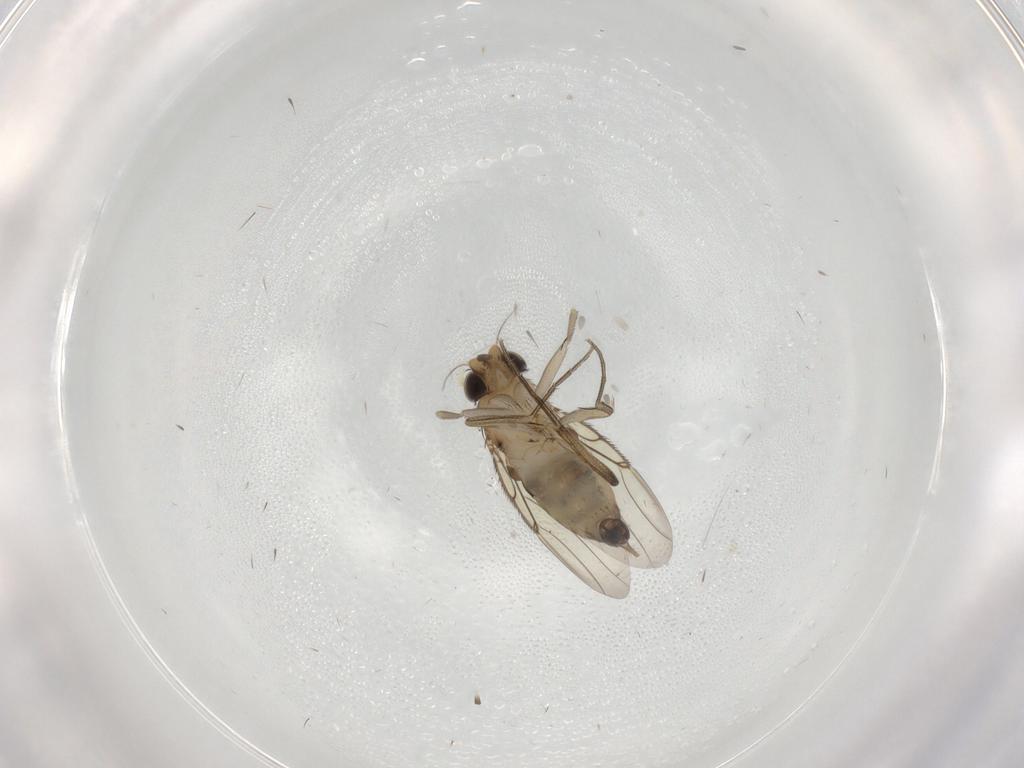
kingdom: Animalia
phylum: Arthropoda
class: Insecta
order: Diptera
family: Phoridae
